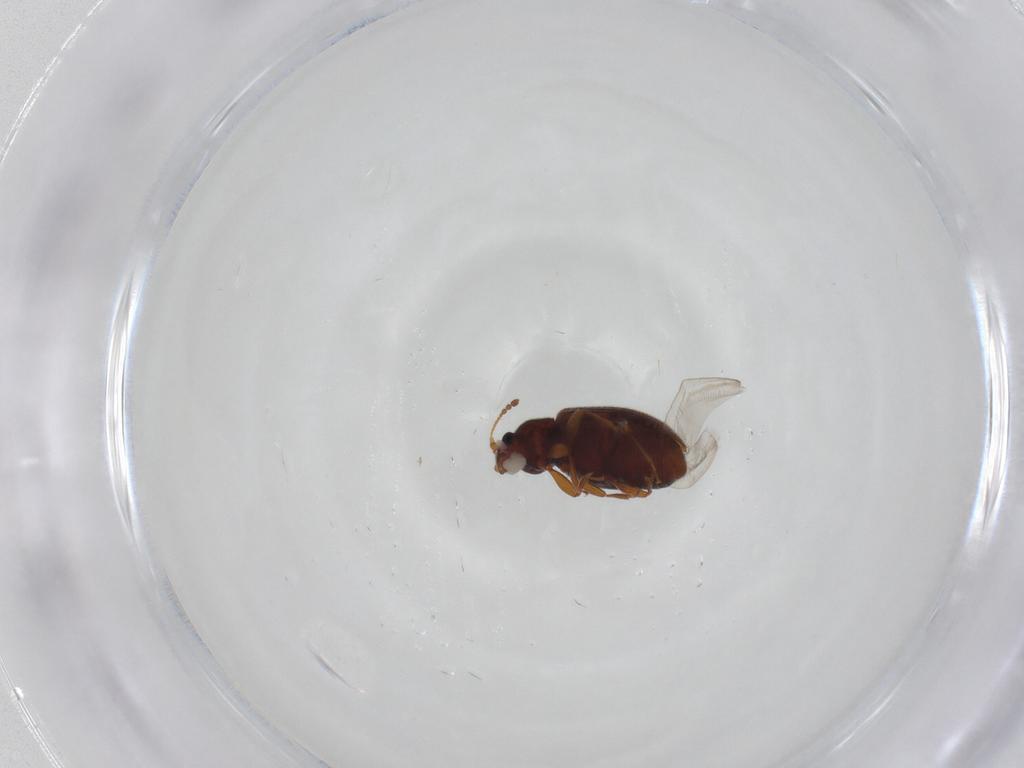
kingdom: Animalia
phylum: Arthropoda
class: Insecta
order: Coleoptera
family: Latridiidae
